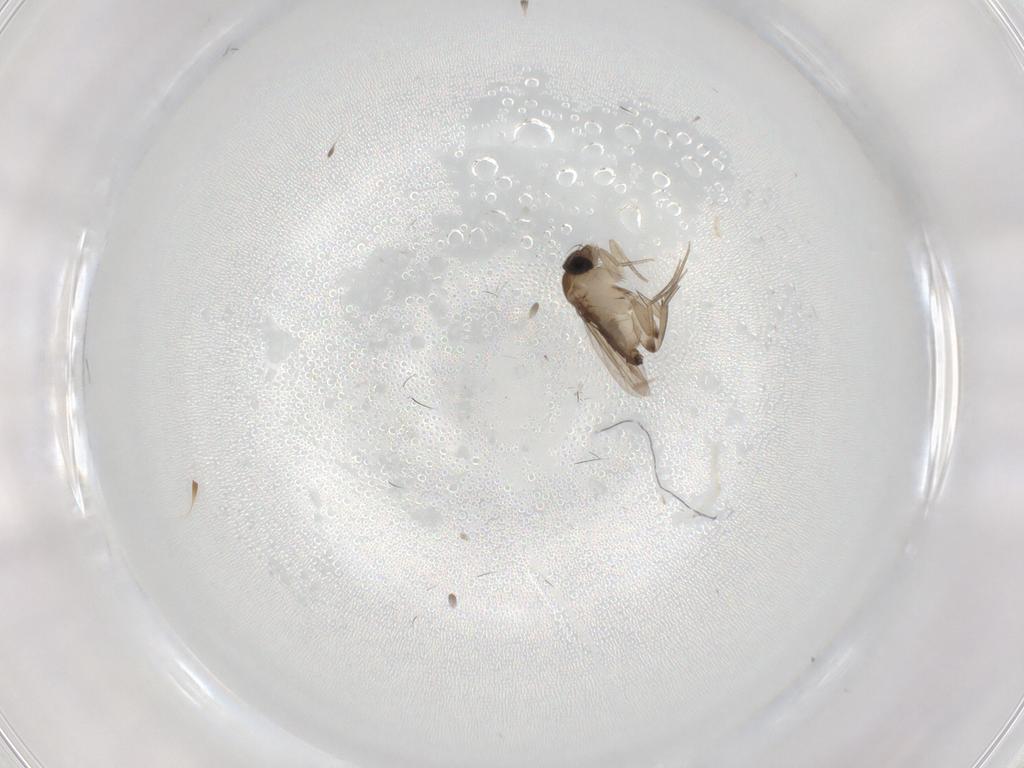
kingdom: Animalia
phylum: Arthropoda
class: Insecta
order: Diptera
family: Phoridae
